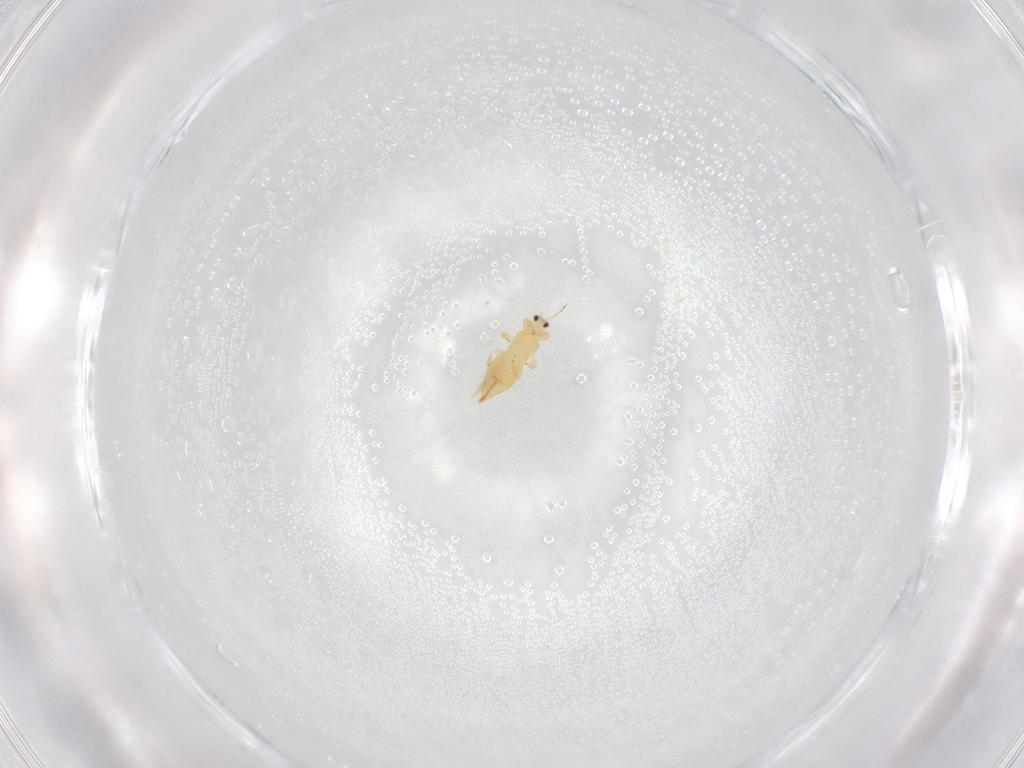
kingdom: Animalia
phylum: Arthropoda
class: Insecta
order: Thysanoptera
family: Thripidae
